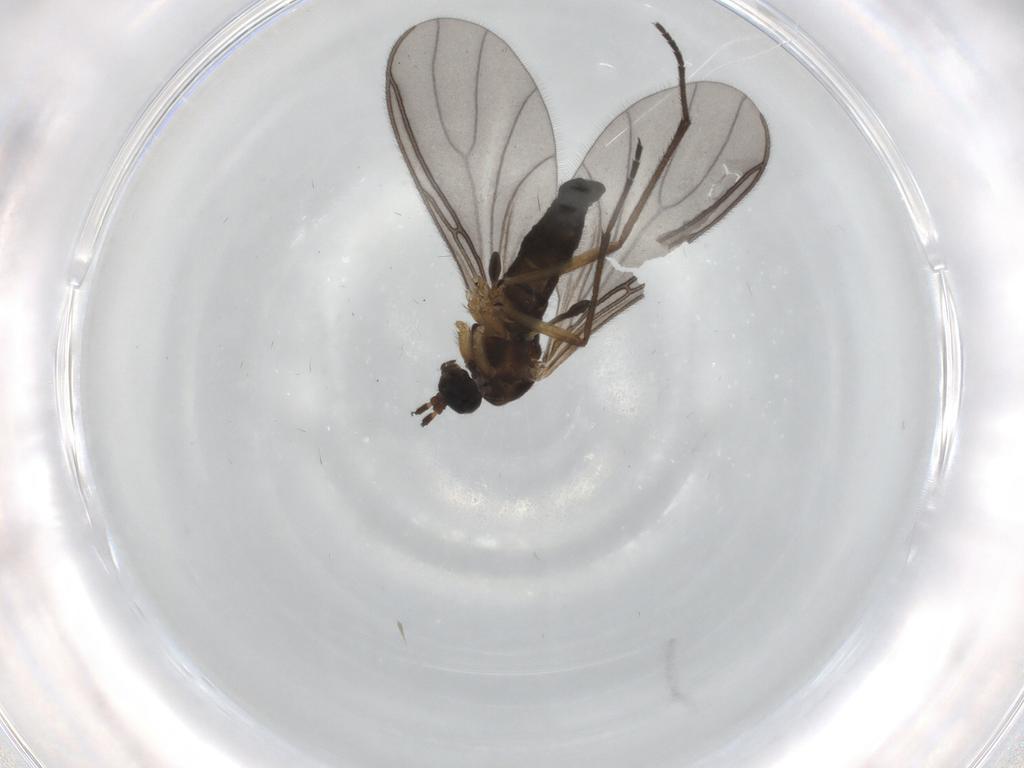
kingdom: Animalia
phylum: Arthropoda
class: Insecta
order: Diptera
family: Sciaridae
